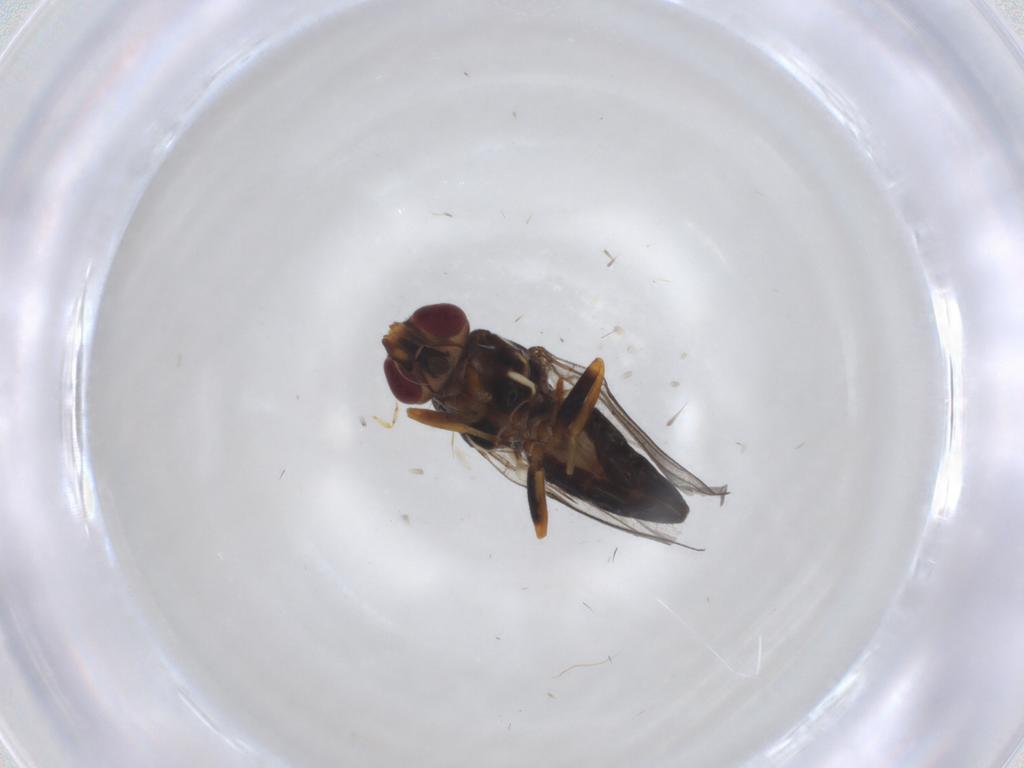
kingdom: Animalia
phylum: Arthropoda
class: Insecta
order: Diptera
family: Chloropidae
